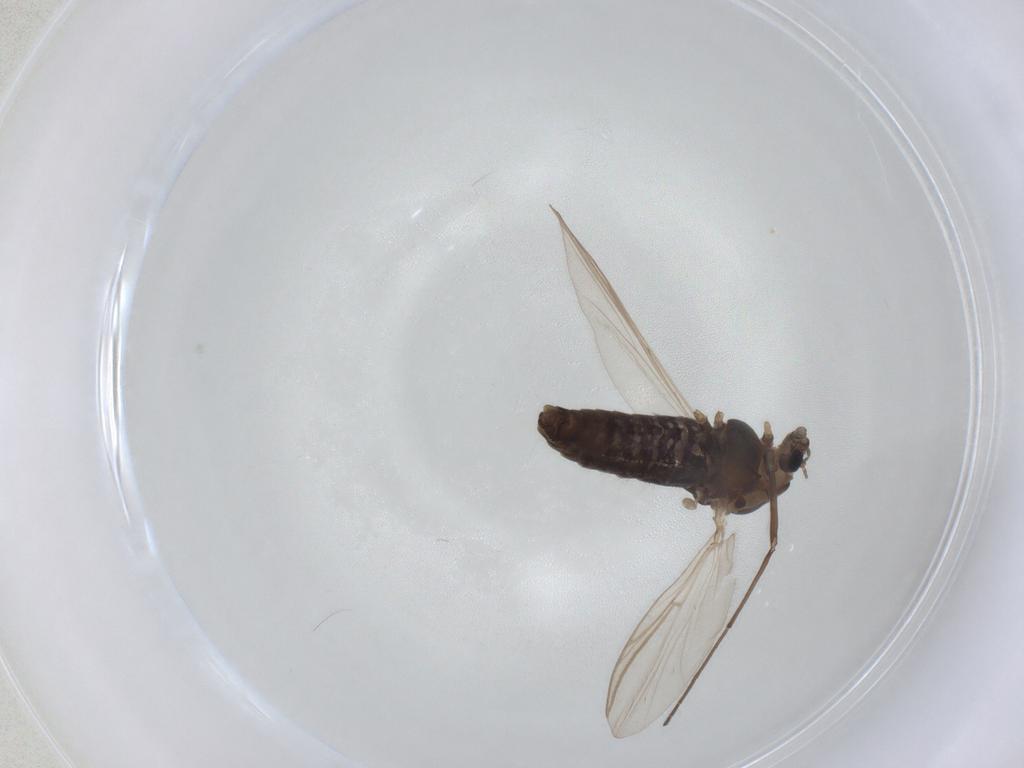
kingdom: Animalia
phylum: Arthropoda
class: Insecta
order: Diptera
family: Chironomidae
